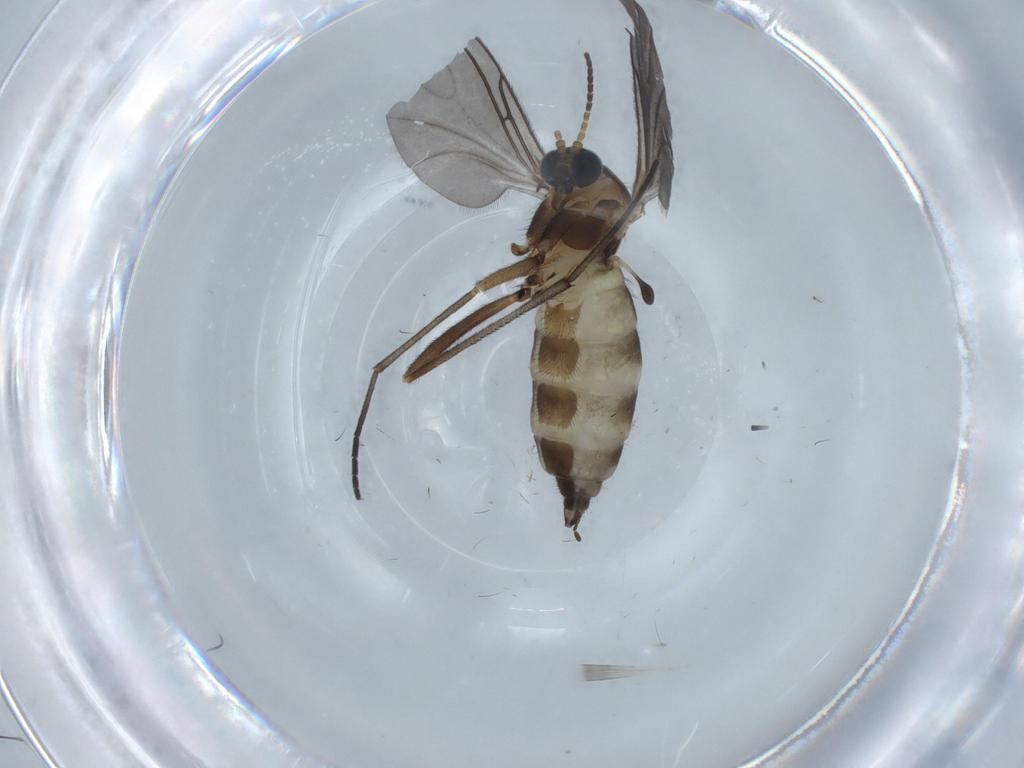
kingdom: Animalia
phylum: Arthropoda
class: Insecta
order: Diptera
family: Sciaridae
